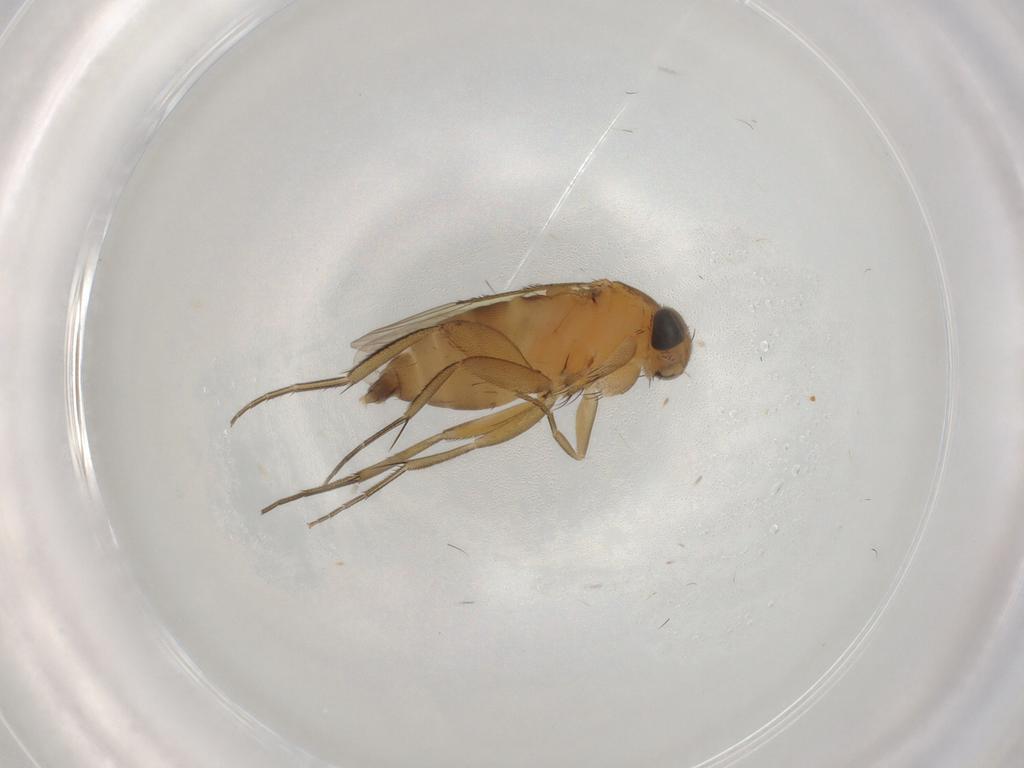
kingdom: Animalia
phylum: Arthropoda
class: Insecta
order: Diptera
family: Phoridae
